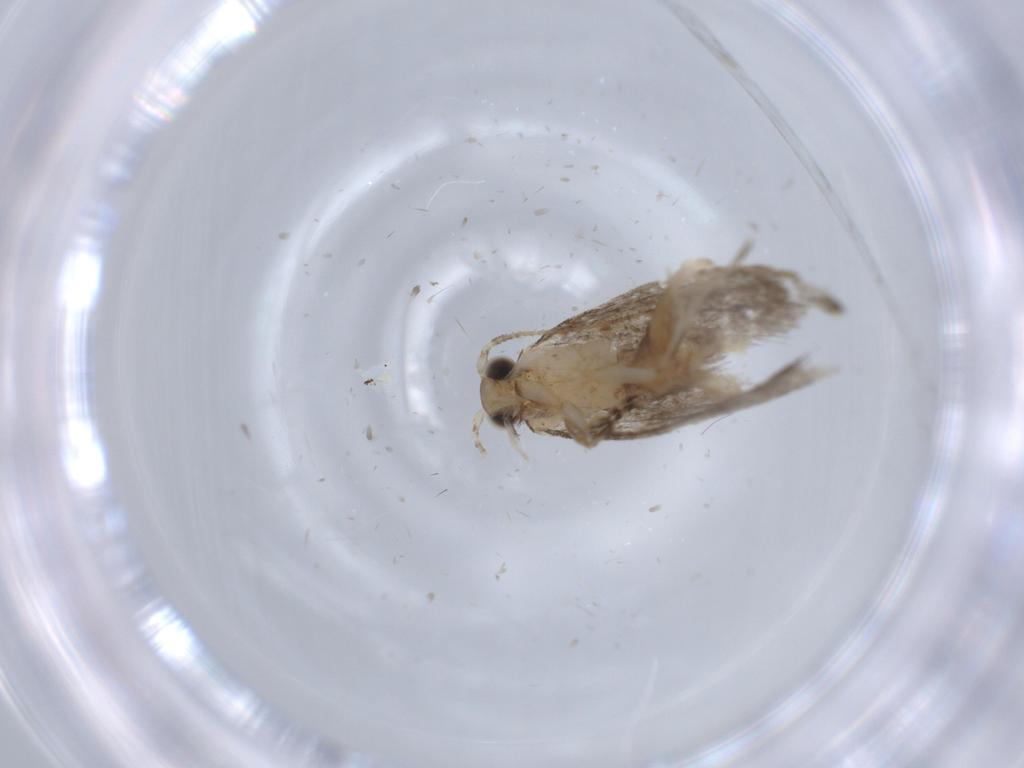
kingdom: Animalia
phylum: Arthropoda
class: Insecta
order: Lepidoptera
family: Tineidae
